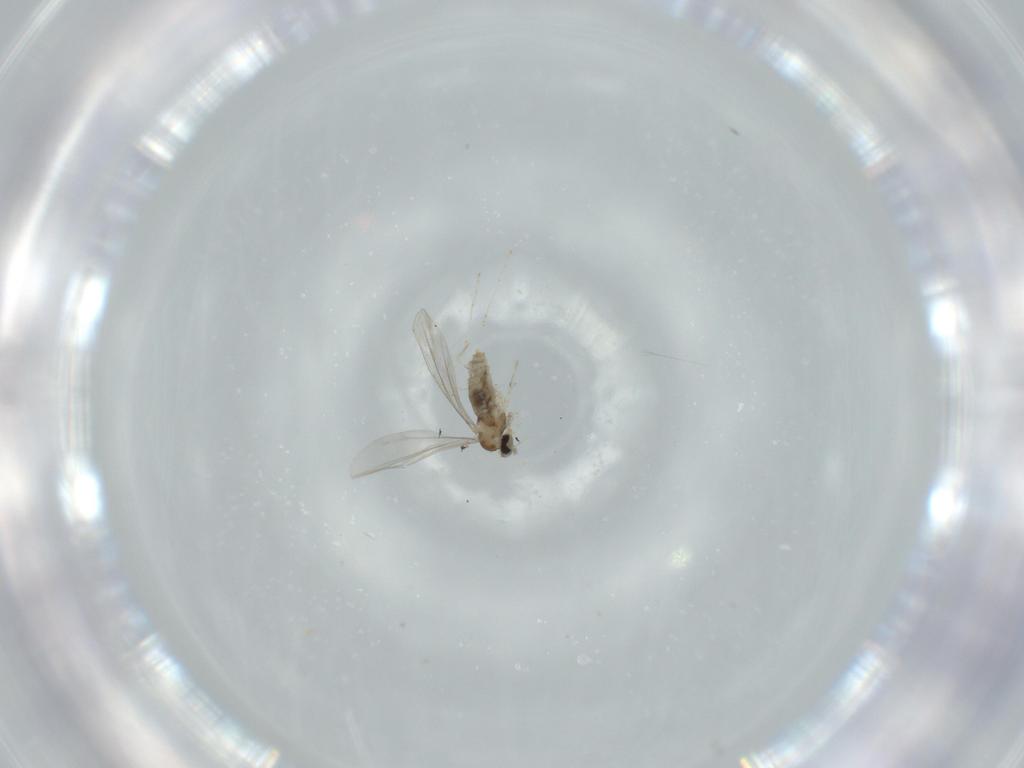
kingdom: Animalia
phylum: Arthropoda
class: Insecta
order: Diptera
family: Cecidomyiidae
